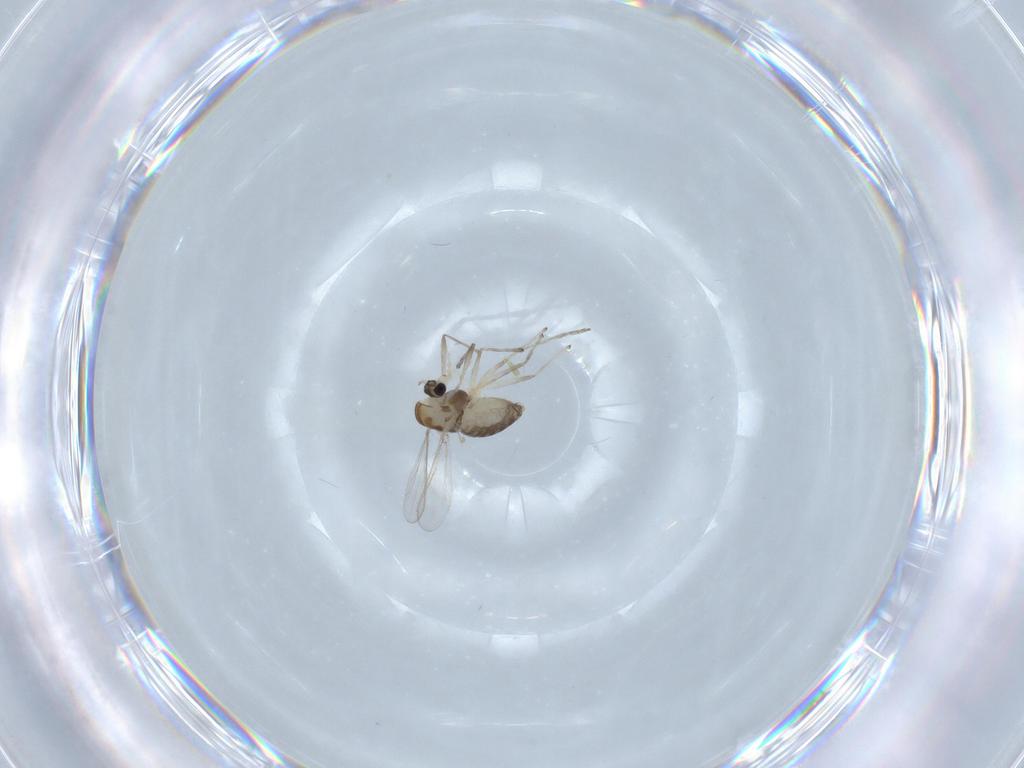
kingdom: Animalia
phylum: Arthropoda
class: Insecta
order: Diptera
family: Chironomidae
